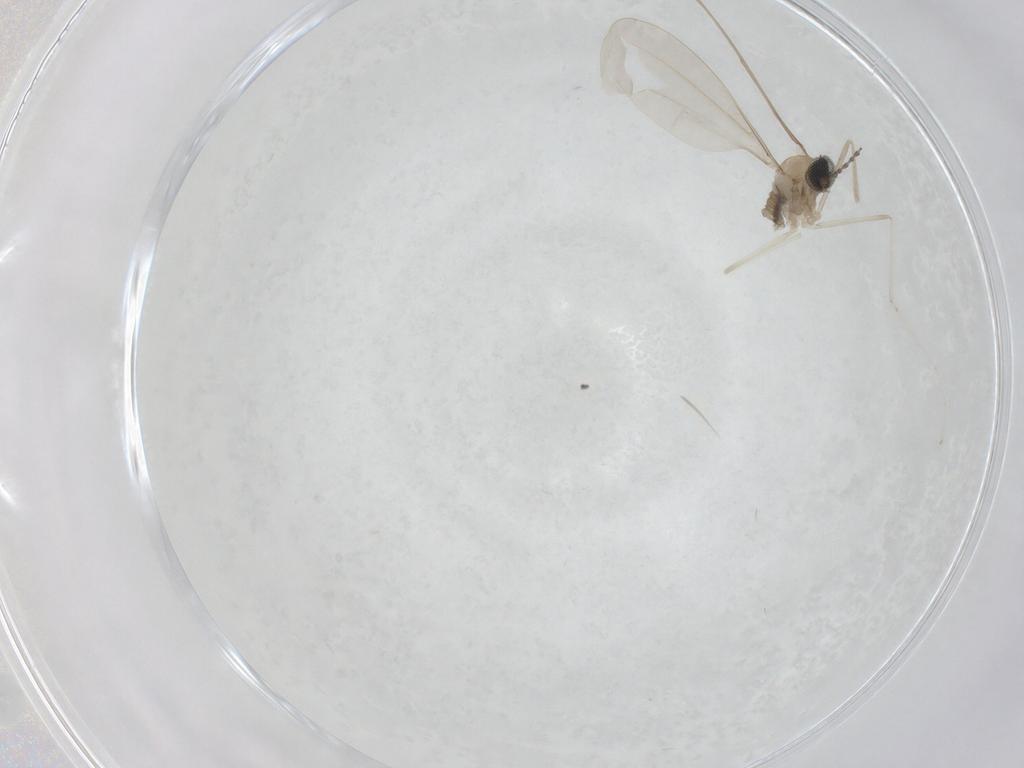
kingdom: Animalia
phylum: Arthropoda
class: Insecta
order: Diptera
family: Cecidomyiidae
